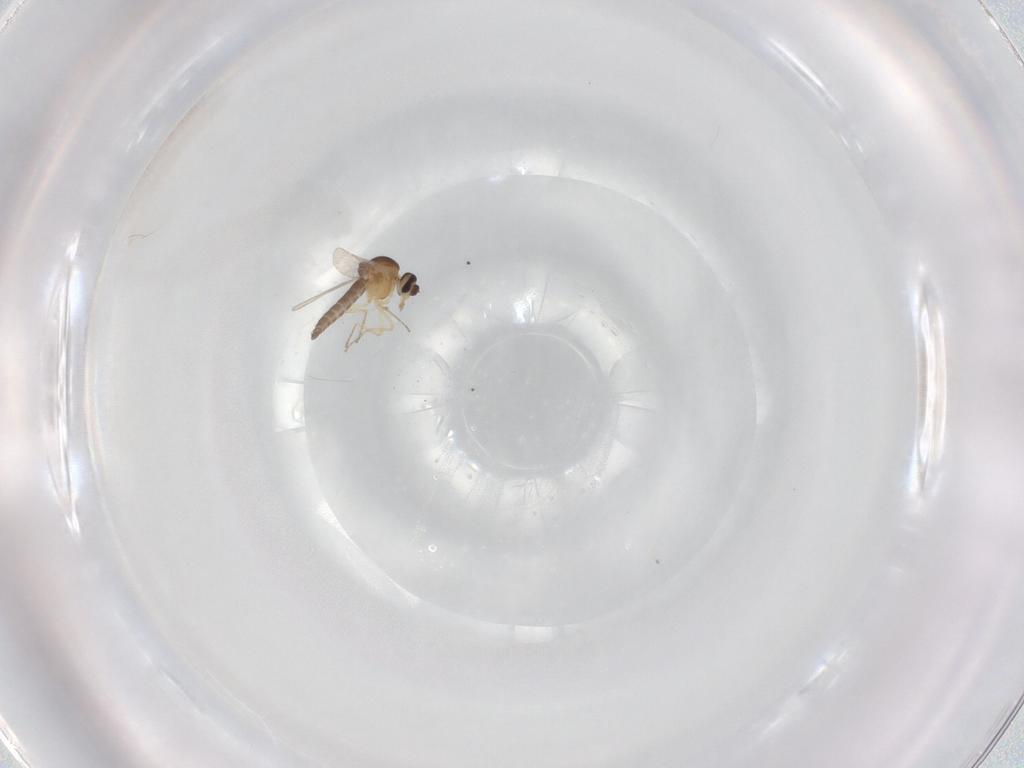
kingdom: Animalia
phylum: Arthropoda
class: Insecta
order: Diptera
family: Ceratopogonidae
